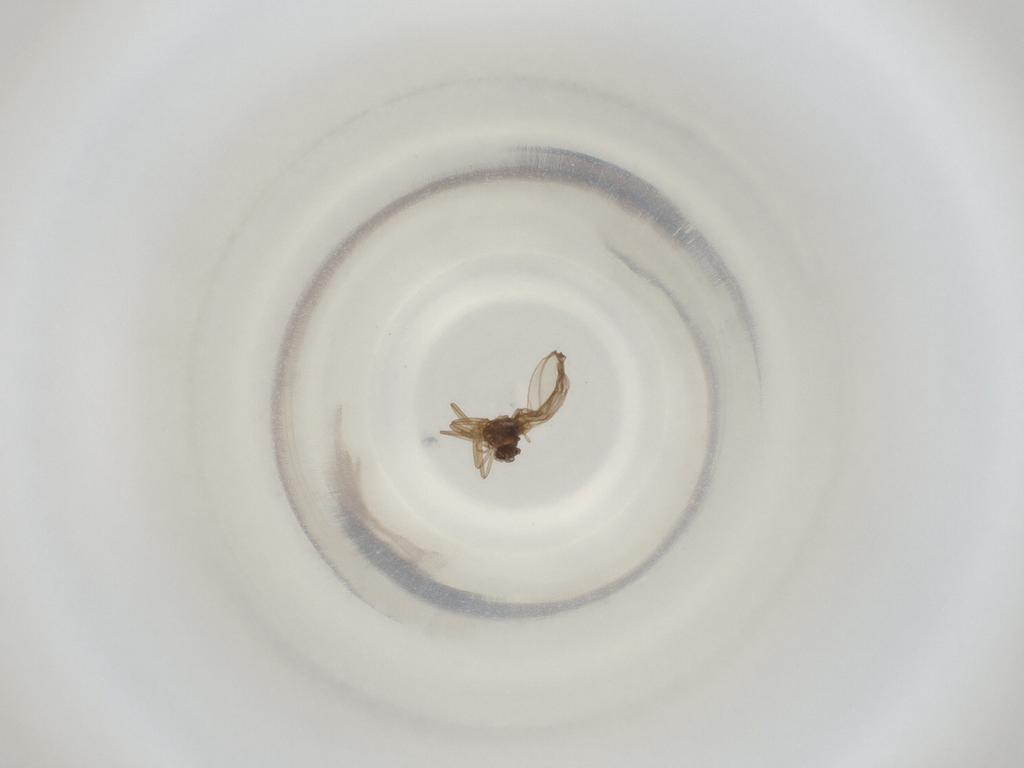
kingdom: Animalia
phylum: Arthropoda
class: Insecta
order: Diptera
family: Cecidomyiidae
